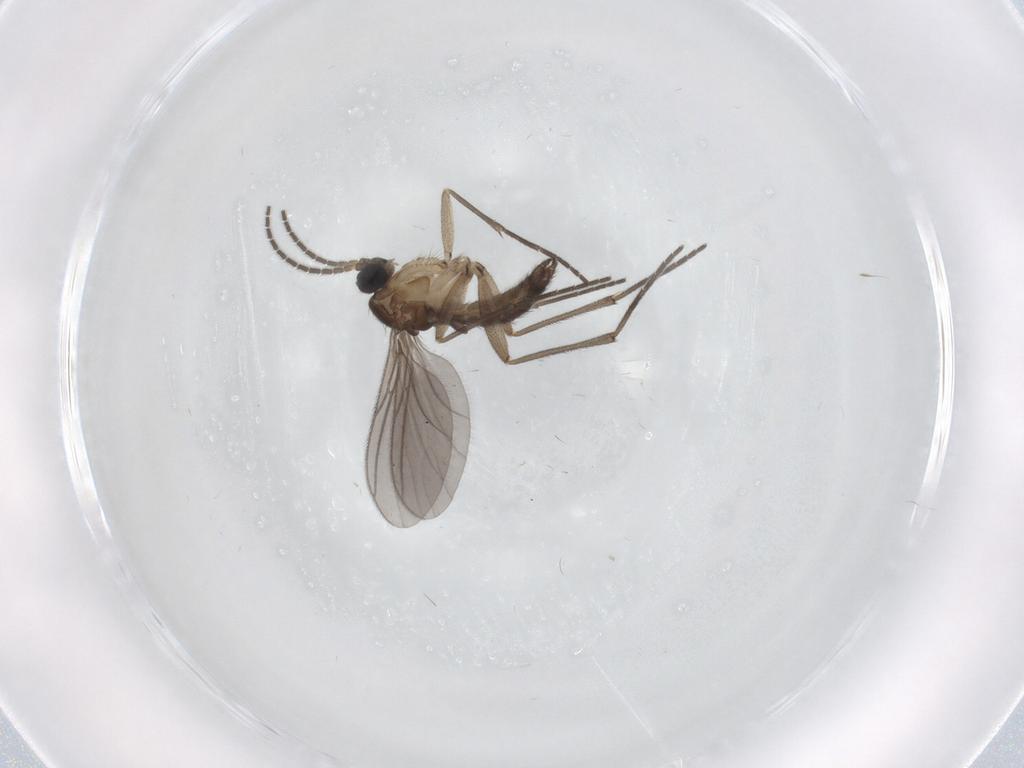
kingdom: Animalia
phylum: Arthropoda
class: Insecta
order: Diptera
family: Sciaridae
